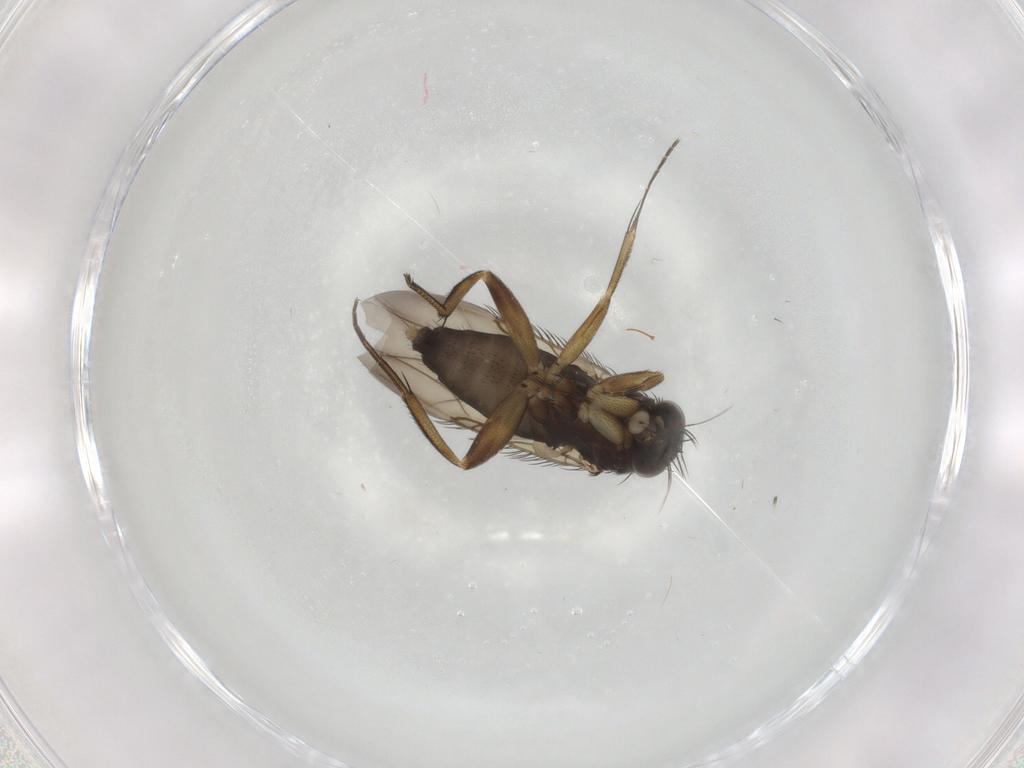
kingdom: Animalia
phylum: Arthropoda
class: Insecta
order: Diptera
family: Phoridae
